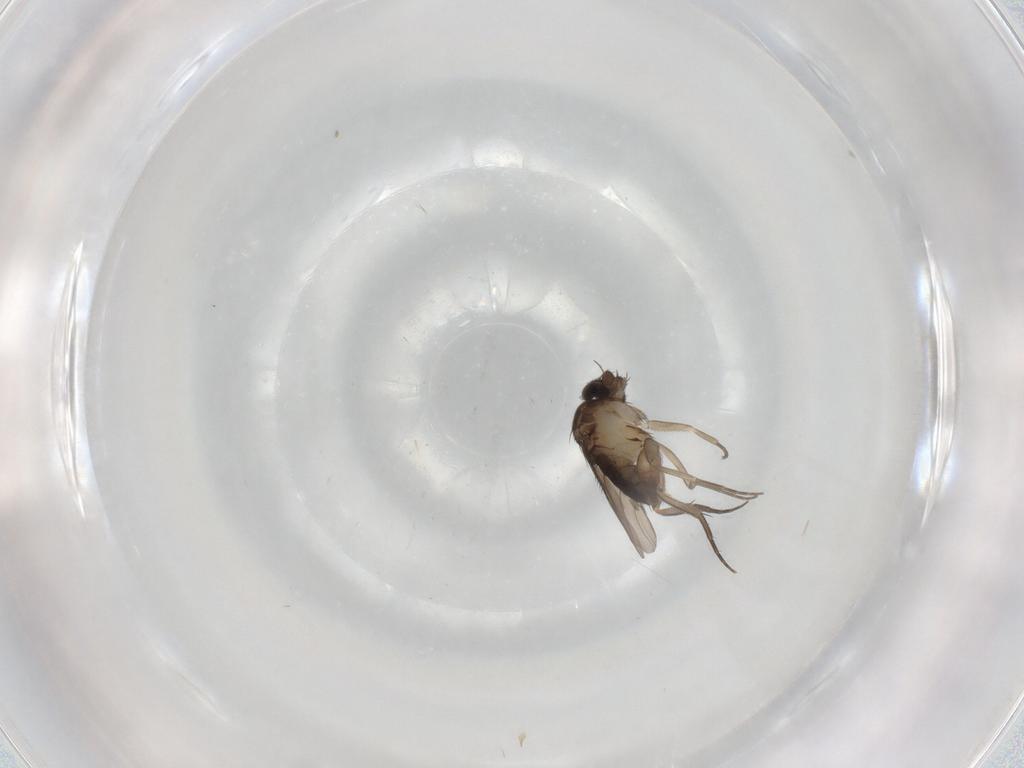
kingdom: Animalia
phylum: Arthropoda
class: Insecta
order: Diptera
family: Phoridae
